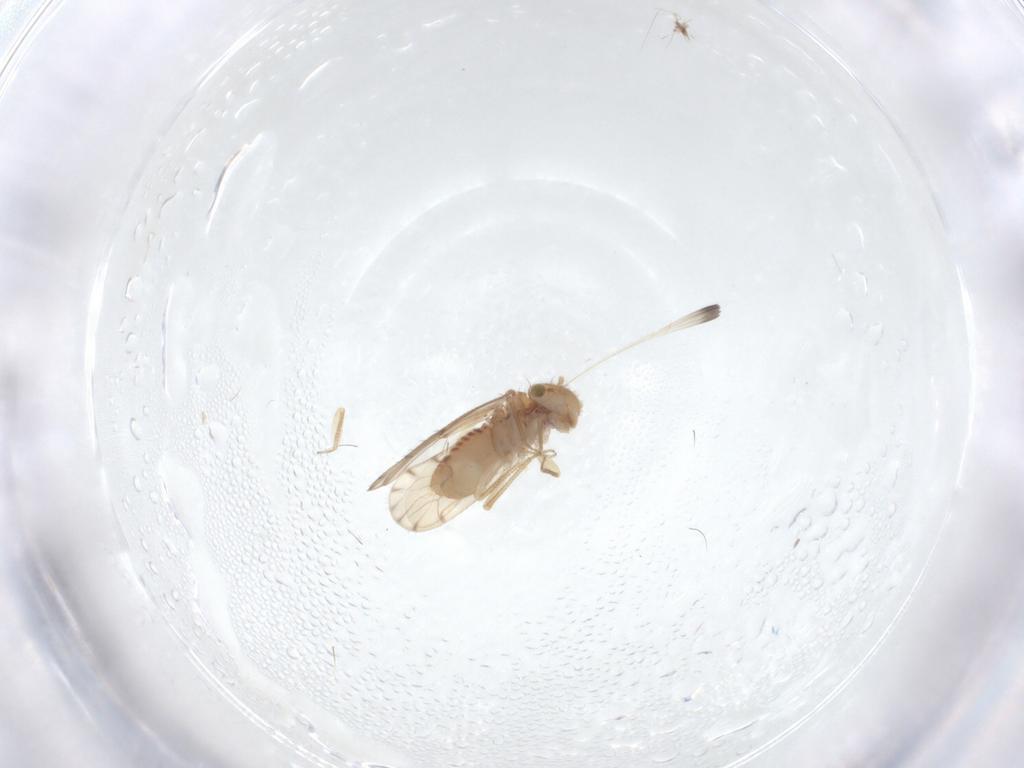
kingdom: Animalia
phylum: Arthropoda
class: Insecta
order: Psocodea
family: Ectopsocidae
